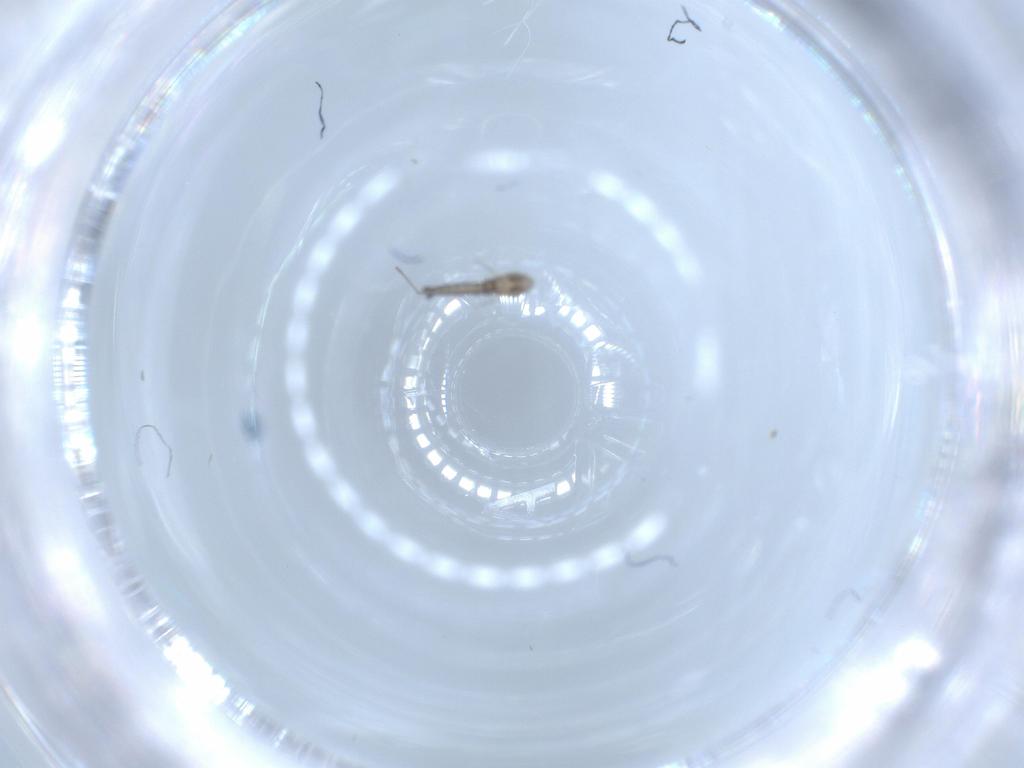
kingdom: Animalia
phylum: Arthropoda
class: Insecta
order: Diptera
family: Cecidomyiidae
